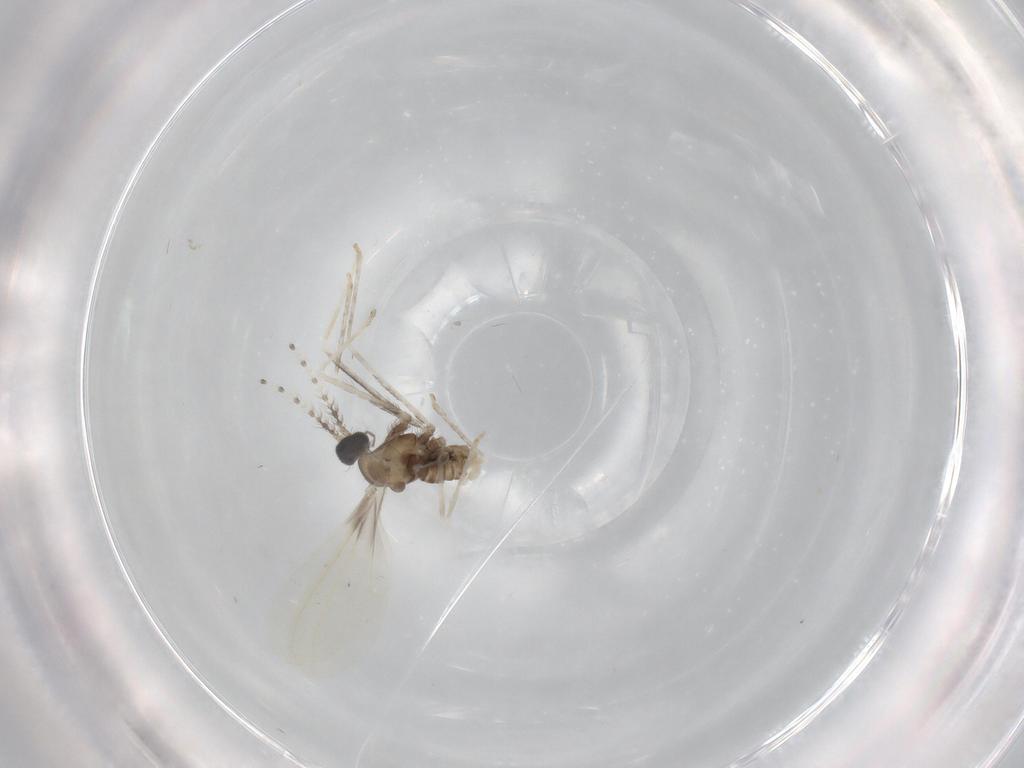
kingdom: Animalia
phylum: Arthropoda
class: Insecta
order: Diptera
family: Cecidomyiidae
